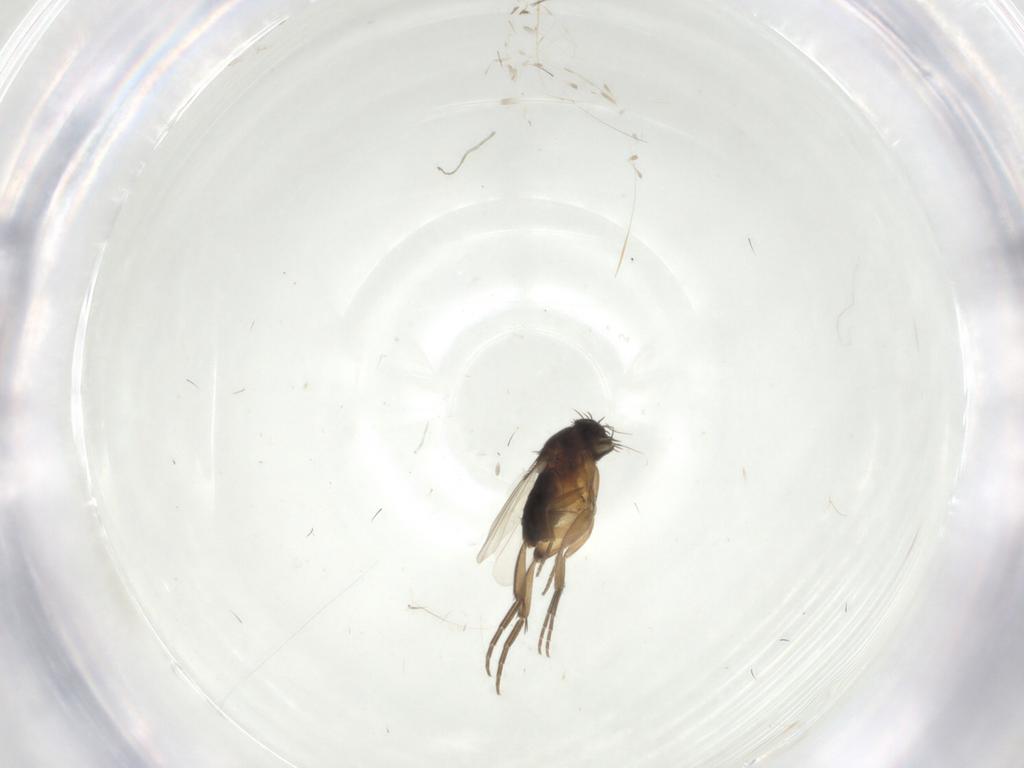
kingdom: Animalia
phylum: Arthropoda
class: Insecta
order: Diptera
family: Phoridae
